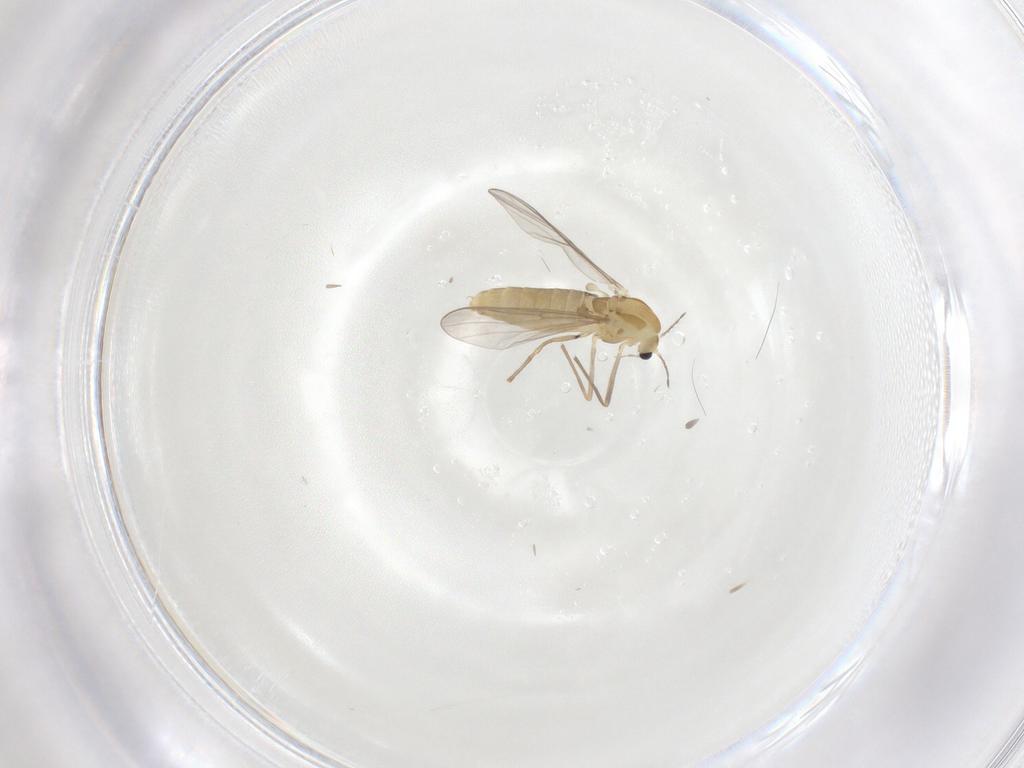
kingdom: Animalia
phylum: Arthropoda
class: Insecta
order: Diptera
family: Chironomidae
